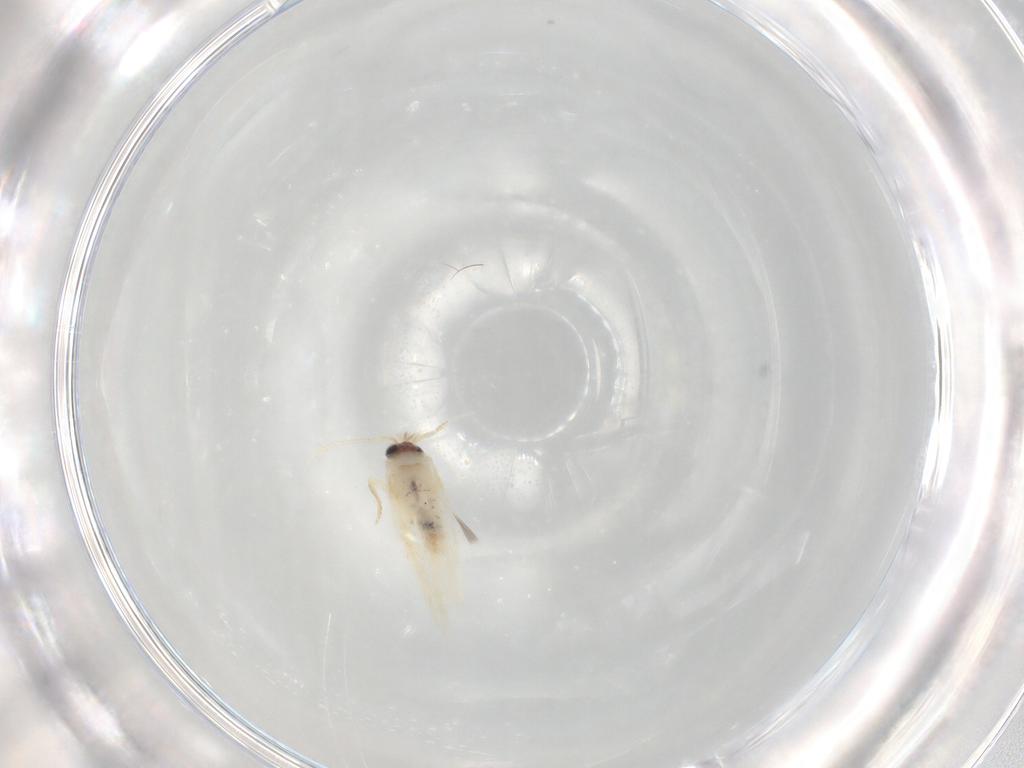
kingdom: Animalia
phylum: Arthropoda
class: Insecta
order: Lepidoptera
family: Nepticulidae
